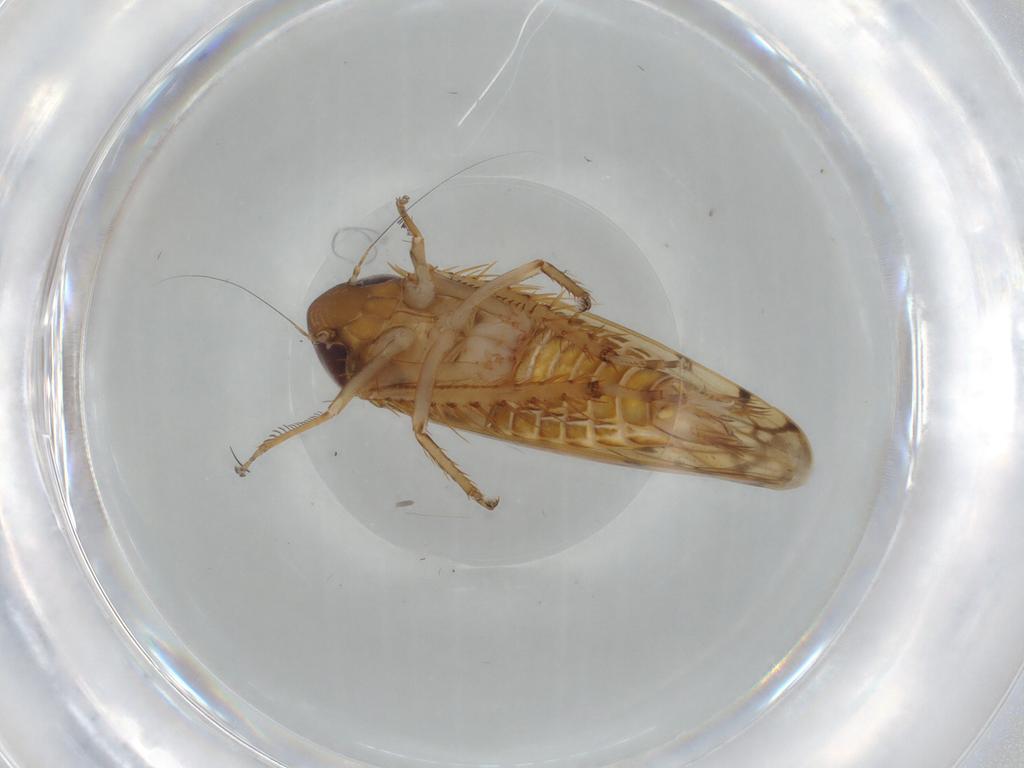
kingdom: Animalia
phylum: Arthropoda
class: Insecta
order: Hemiptera
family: Cicadellidae
